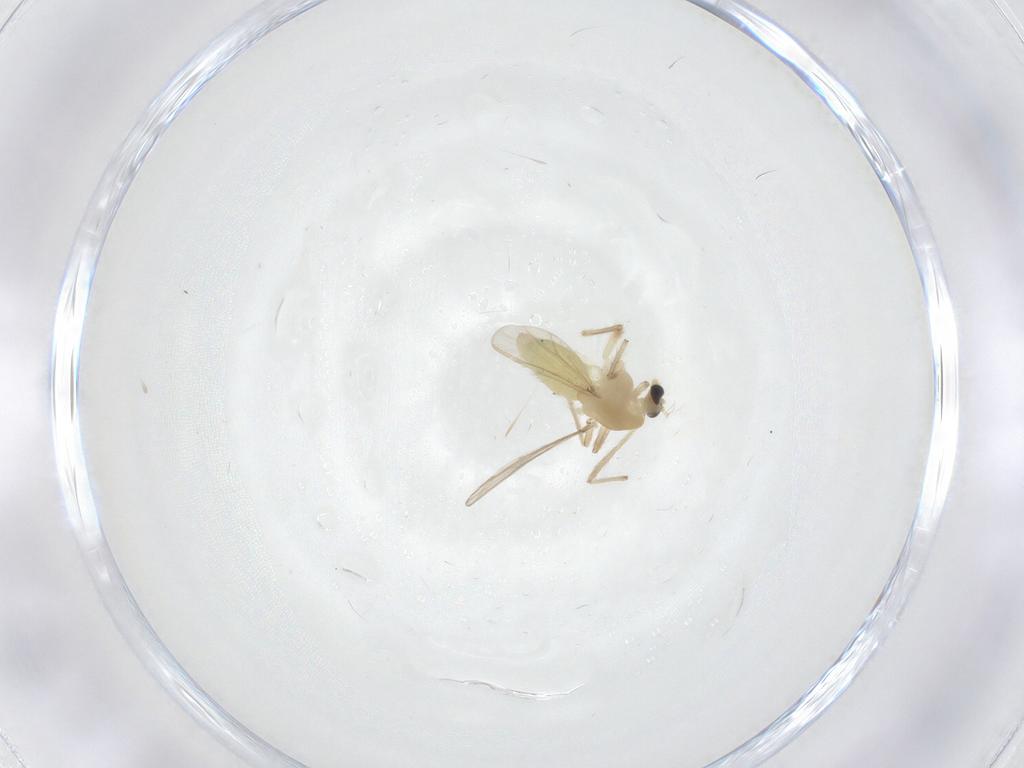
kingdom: Animalia
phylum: Arthropoda
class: Insecta
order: Diptera
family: Chironomidae
